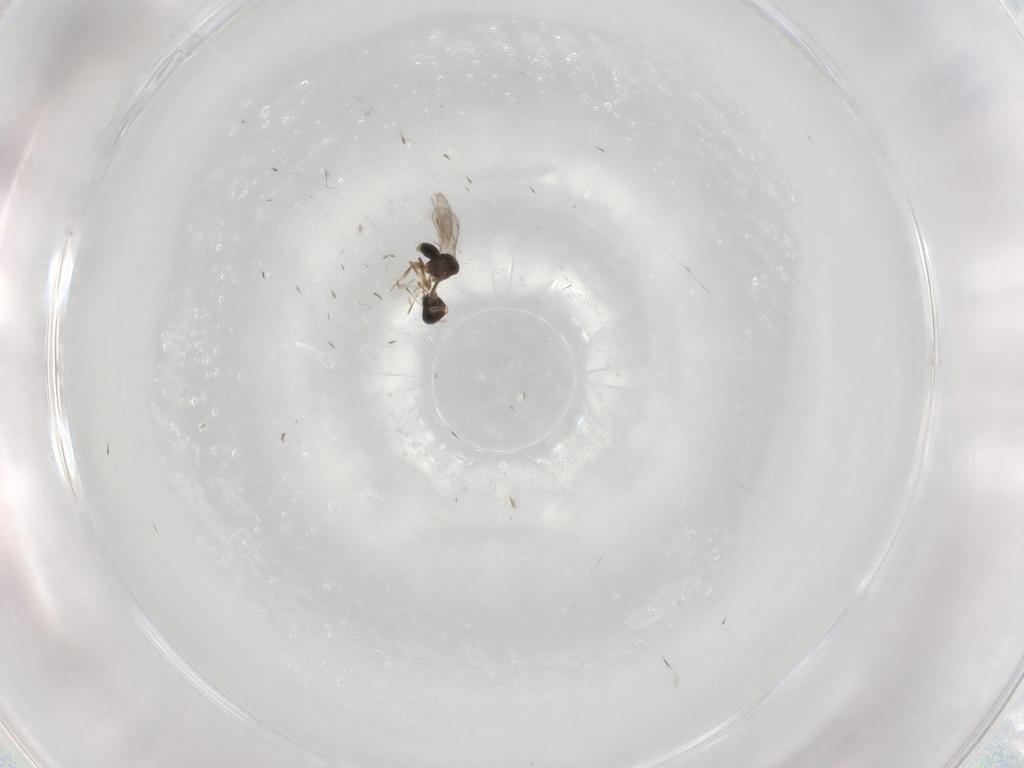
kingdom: Animalia
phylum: Arthropoda
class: Insecta
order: Hymenoptera
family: Scelionidae
